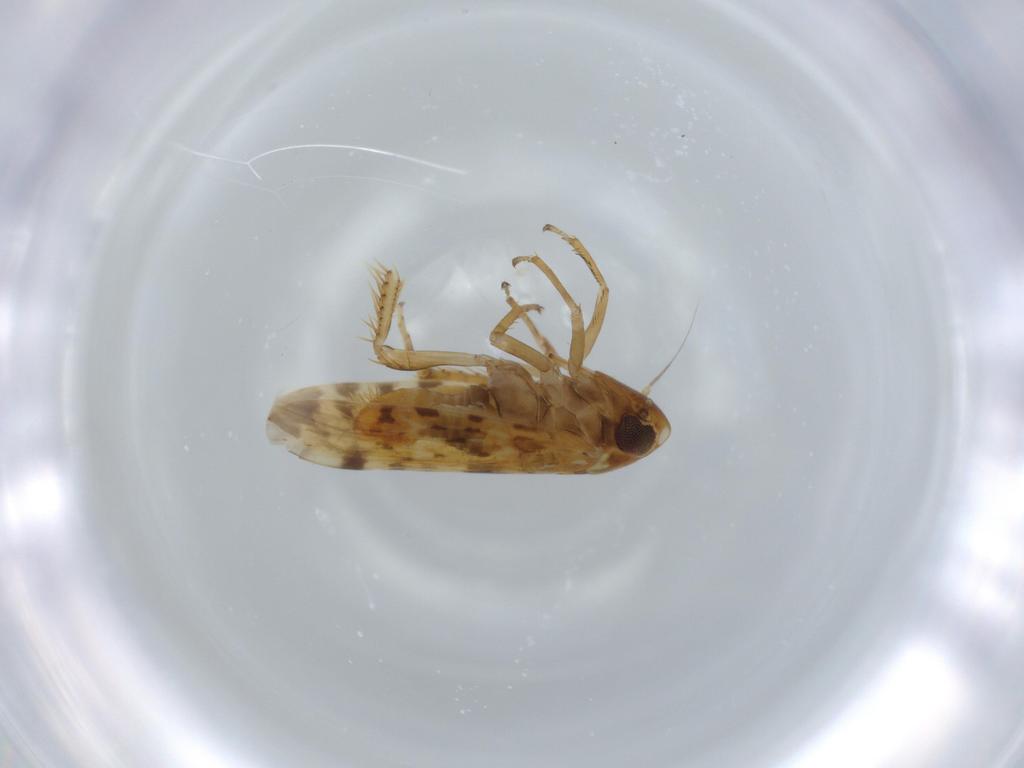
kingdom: Animalia
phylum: Arthropoda
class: Insecta
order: Hemiptera
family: Cicadellidae
